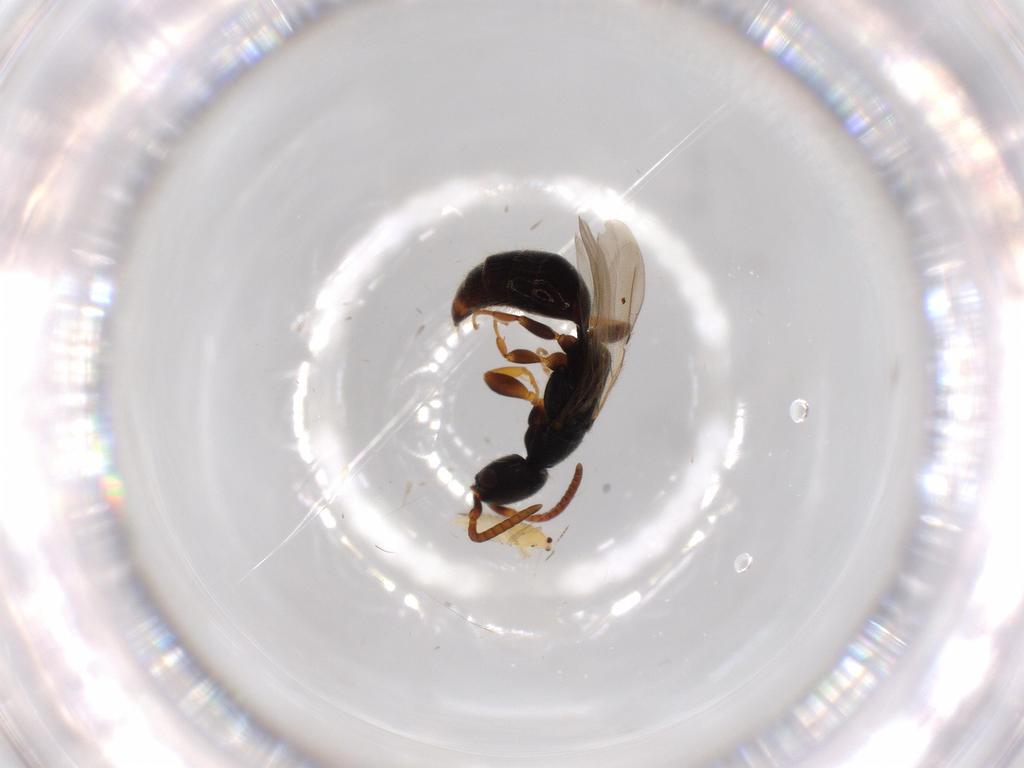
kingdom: Animalia
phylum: Arthropoda
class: Insecta
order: Hymenoptera
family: Bethylidae
